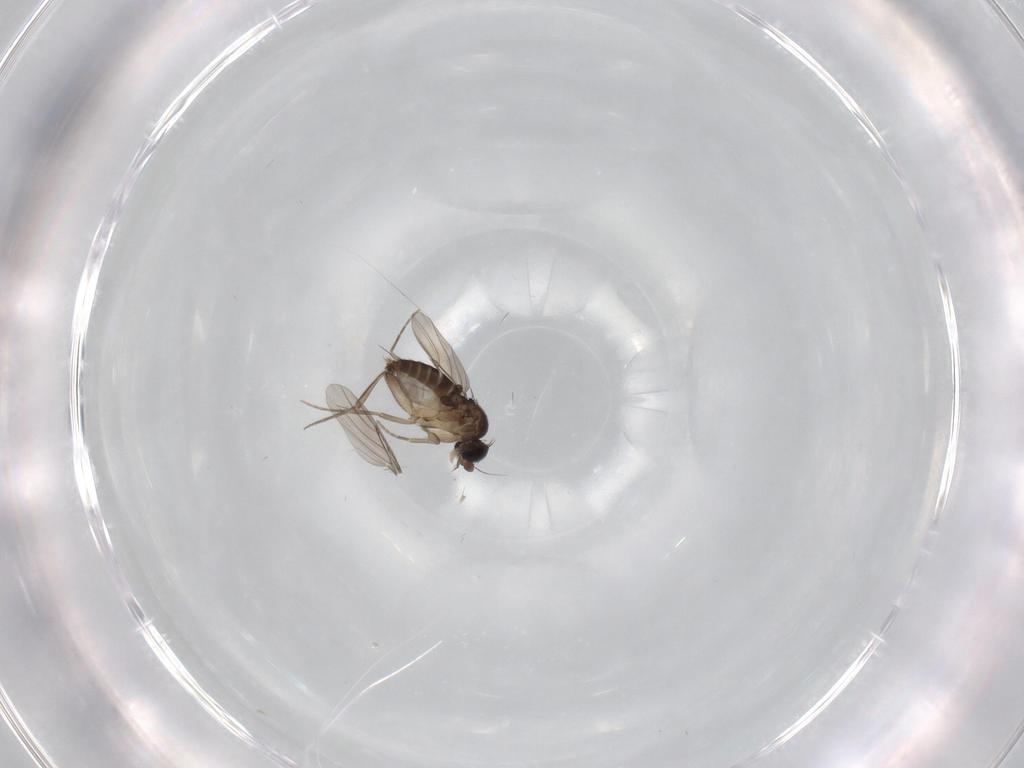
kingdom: Animalia
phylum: Arthropoda
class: Insecta
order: Diptera
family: Phoridae
